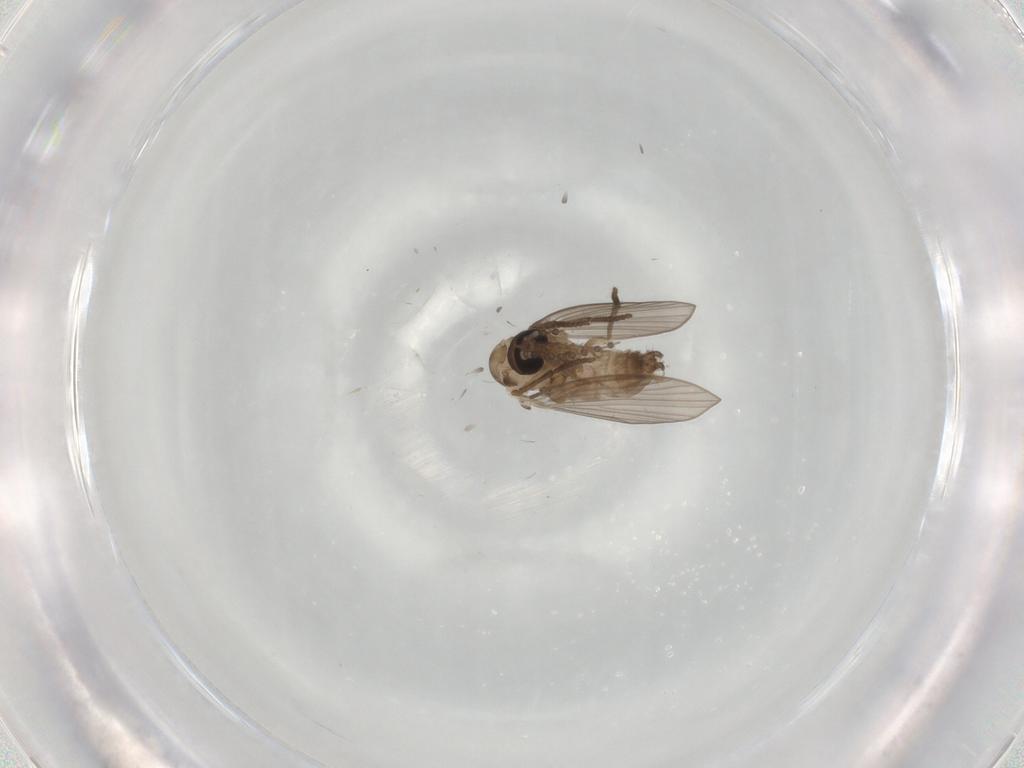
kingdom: Animalia
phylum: Arthropoda
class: Insecta
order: Diptera
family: Psychodidae
